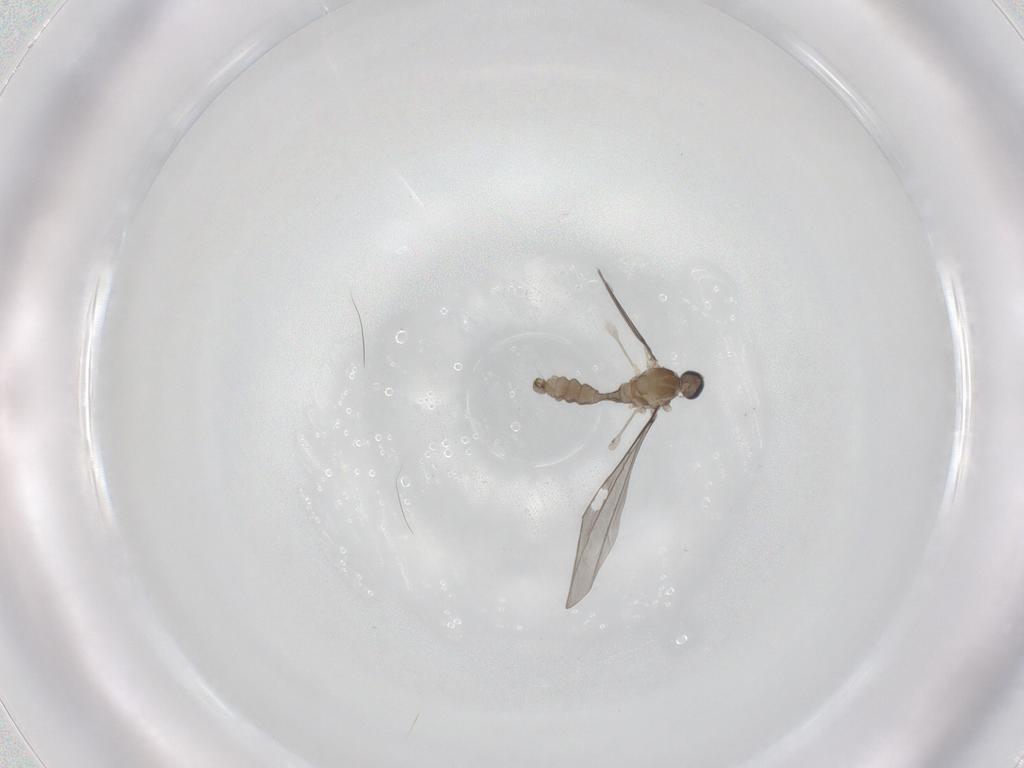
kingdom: Animalia
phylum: Arthropoda
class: Insecta
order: Diptera
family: Cecidomyiidae
